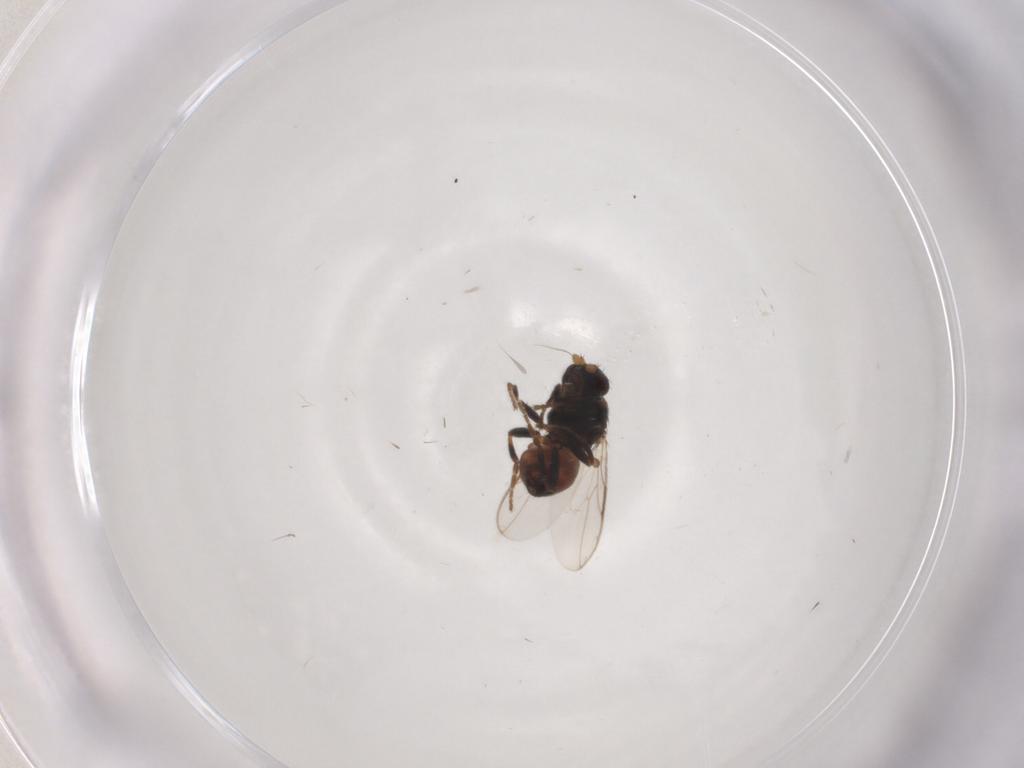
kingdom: Animalia
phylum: Arthropoda
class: Insecta
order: Diptera
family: Sphaeroceridae
